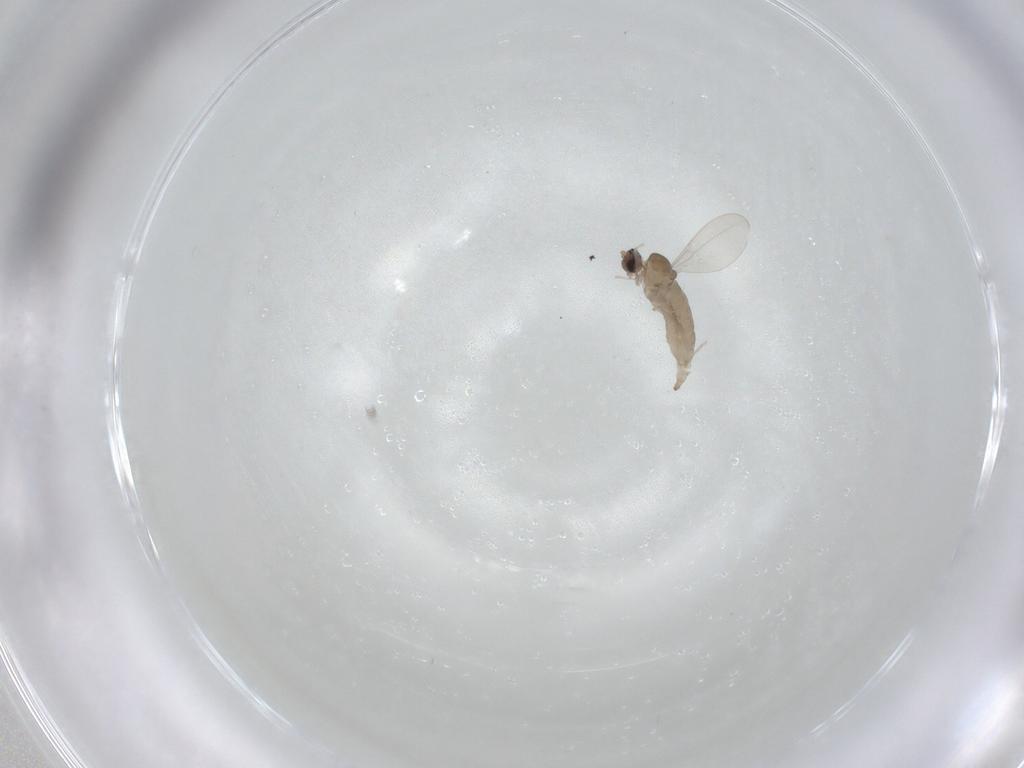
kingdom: Animalia
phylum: Arthropoda
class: Insecta
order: Diptera
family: Cecidomyiidae
